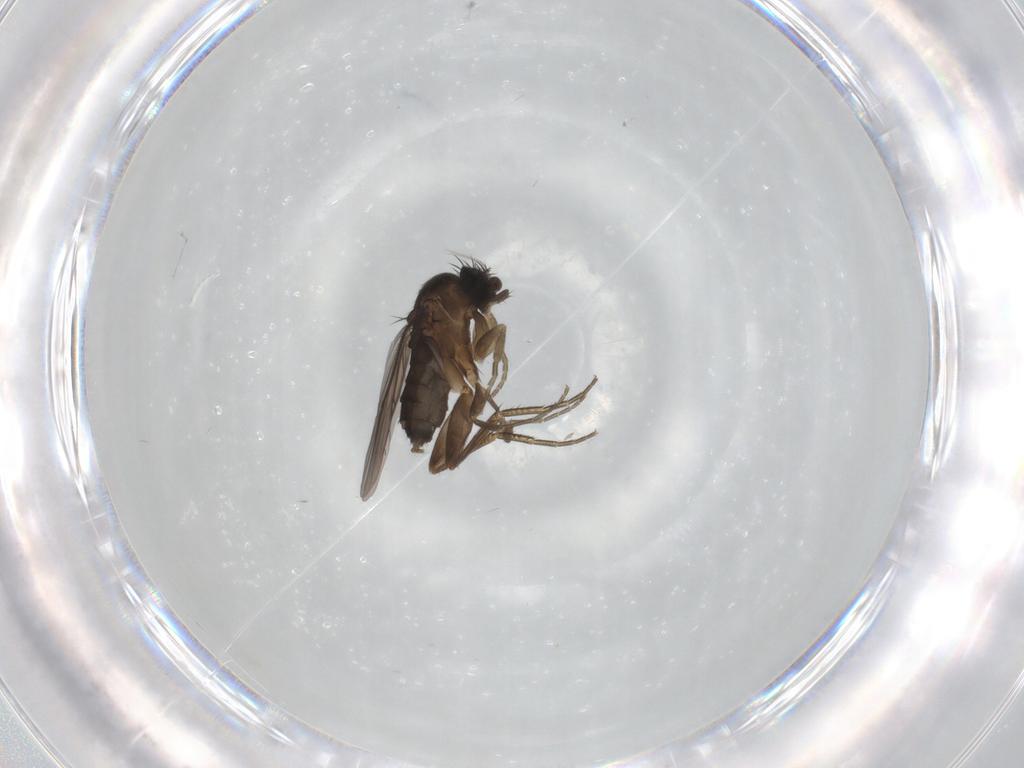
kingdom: Animalia
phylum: Arthropoda
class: Insecta
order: Diptera
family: Phoridae
